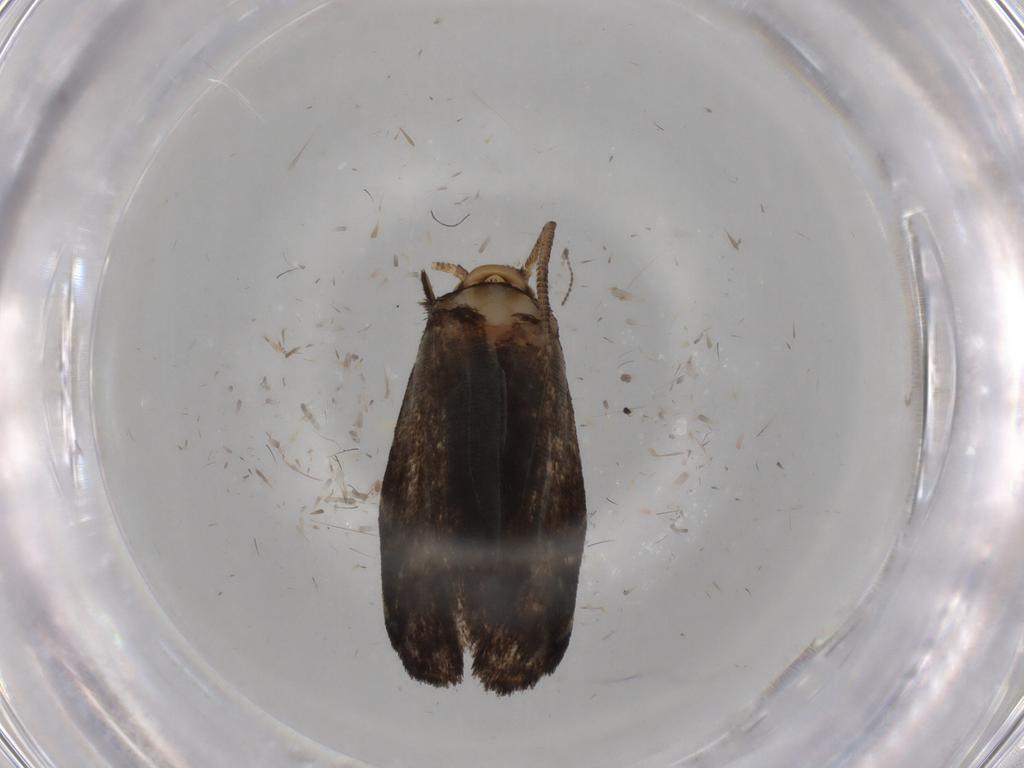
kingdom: Animalia
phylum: Arthropoda
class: Insecta
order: Lepidoptera
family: Dryadaulidae
